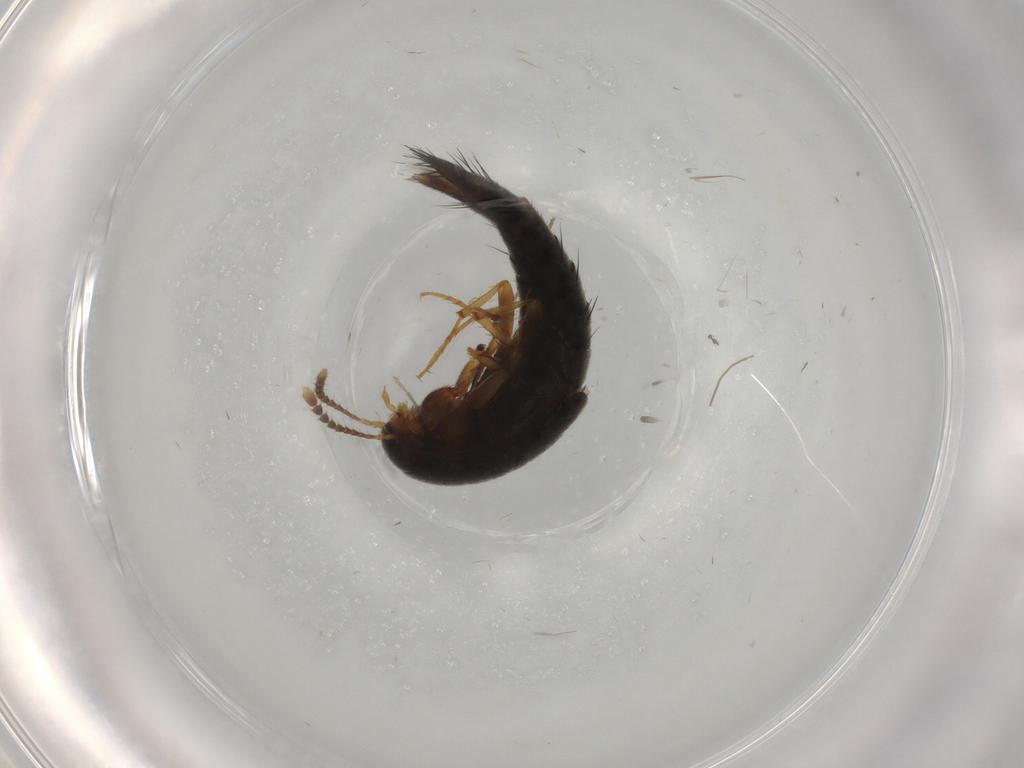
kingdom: Animalia
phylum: Arthropoda
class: Insecta
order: Coleoptera
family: Staphylinidae
